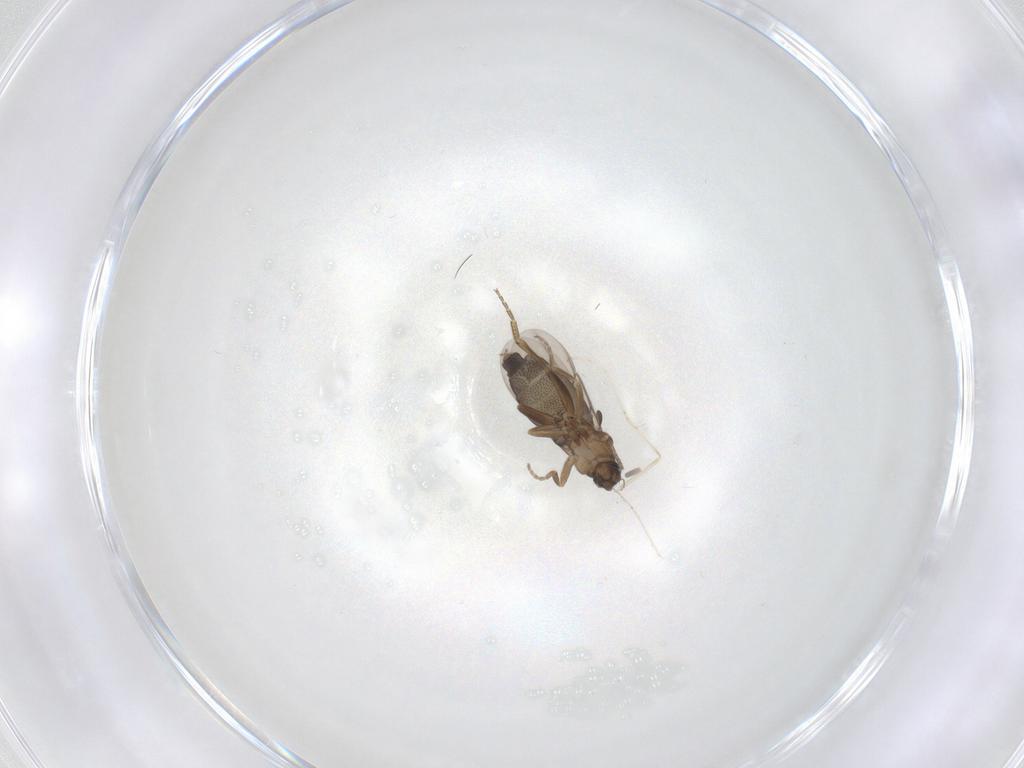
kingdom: Animalia
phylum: Arthropoda
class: Insecta
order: Diptera
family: Phoridae
